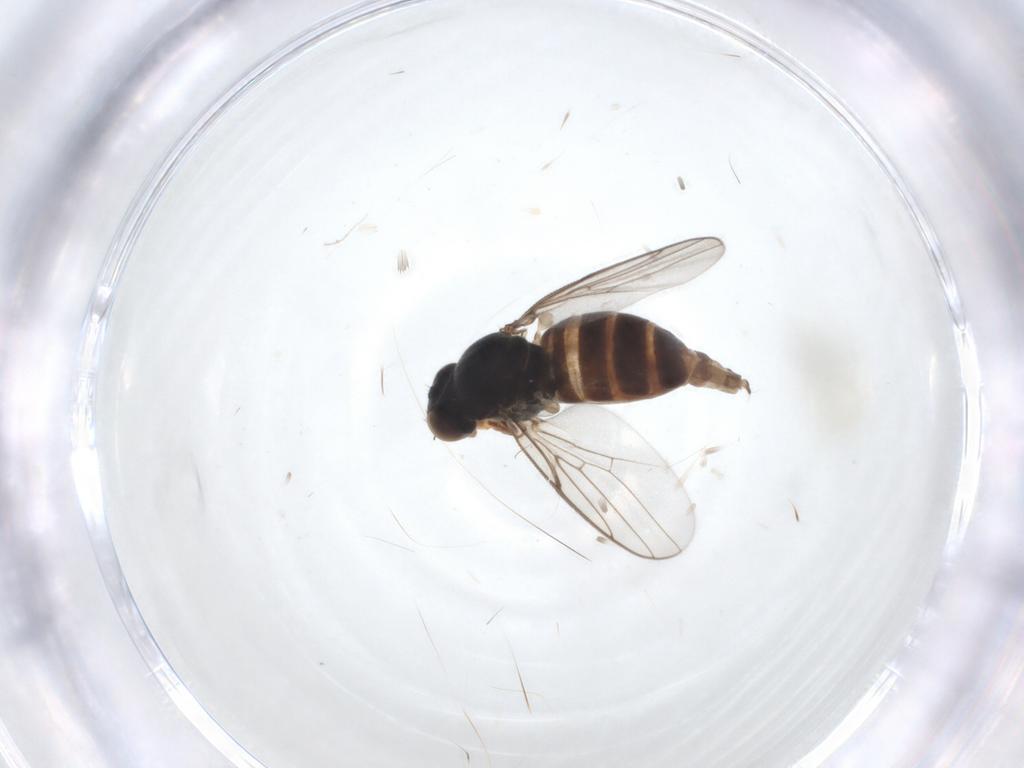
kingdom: Animalia
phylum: Arthropoda
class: Insecta
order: Diptera
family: Chloropidae
